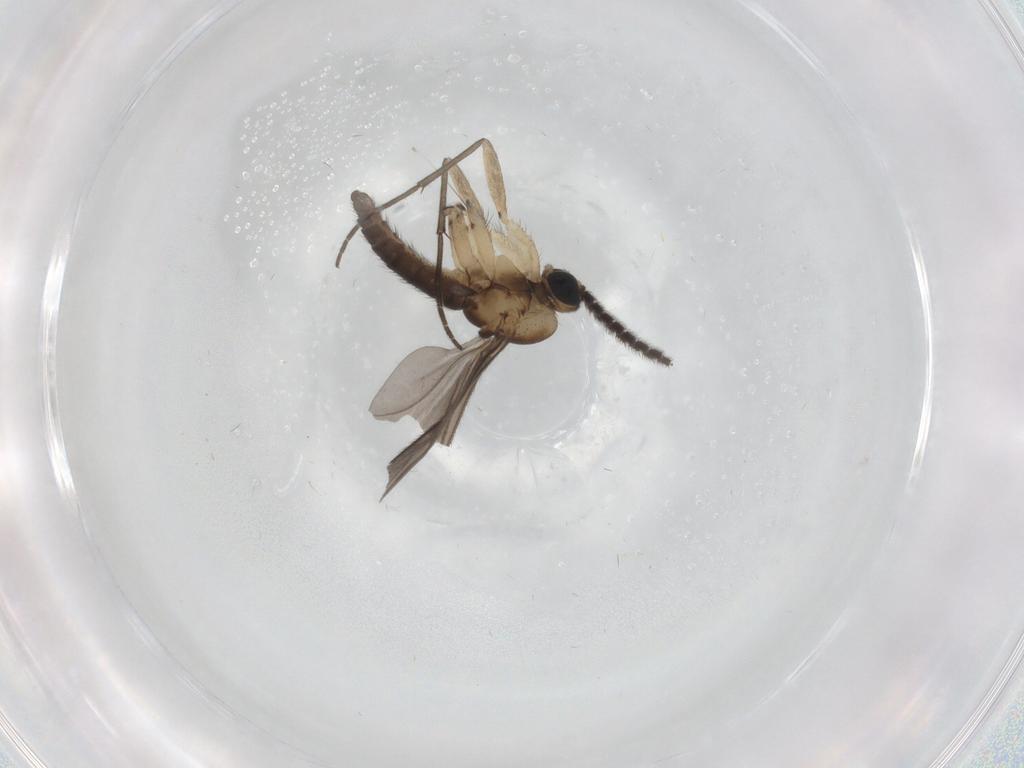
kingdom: Animalia
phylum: Arthropoda
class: Insecta
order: Diptera
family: Sciaridae
